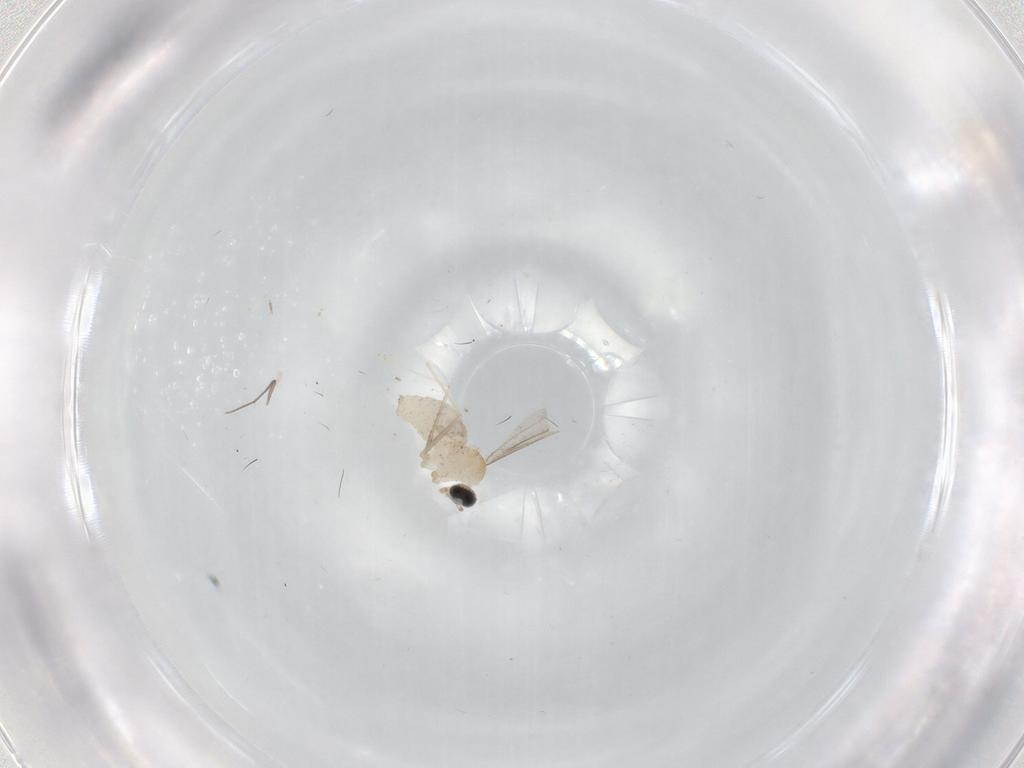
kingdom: Animalia
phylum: Arthropoda
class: Insecta
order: Diptera
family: Cecidomyiidae
